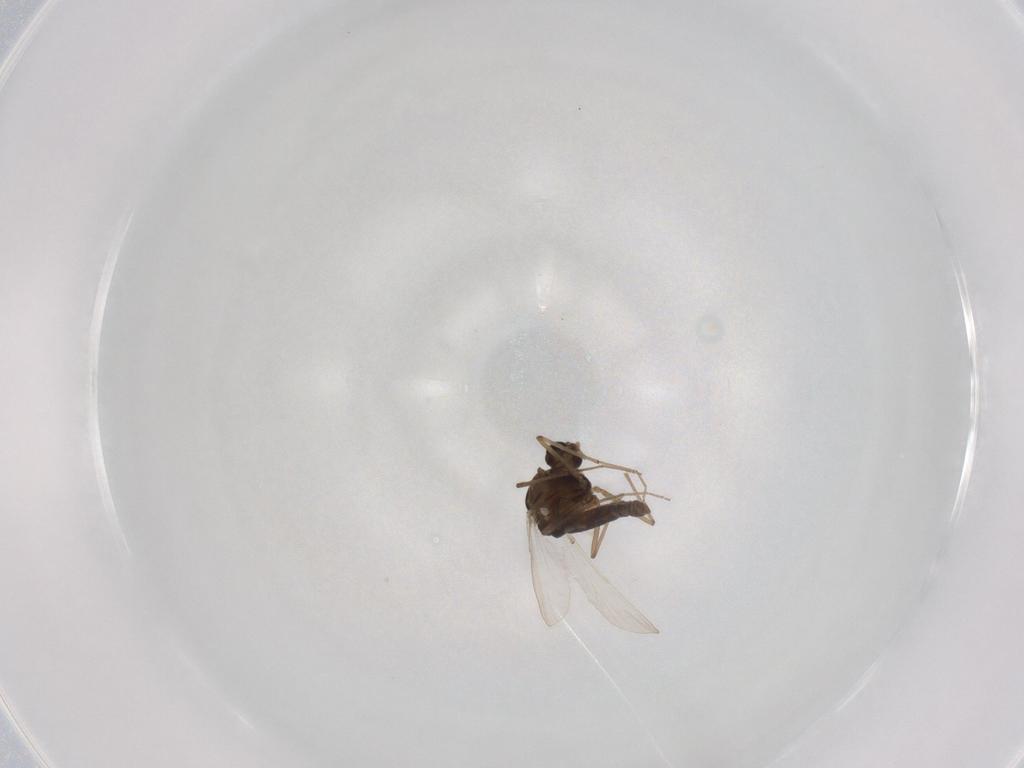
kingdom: Animalia
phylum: Arthropoda
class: Insecta
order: Diptera
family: Chironomidae
